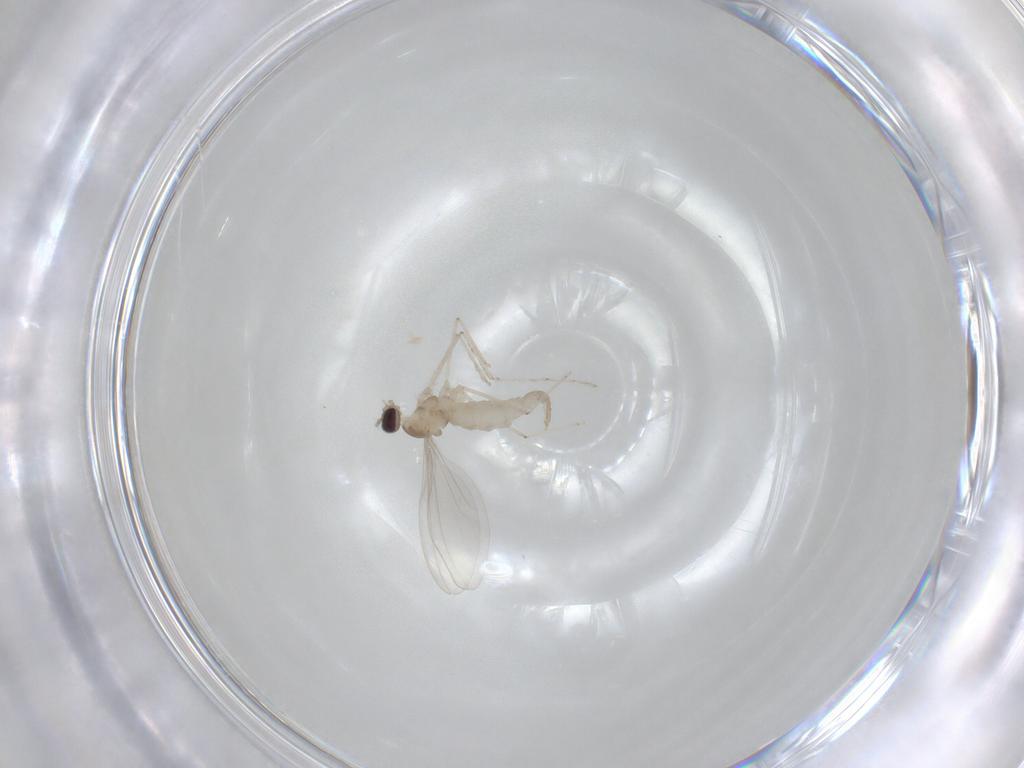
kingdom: Animalia
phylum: Arthropoda
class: Insecta
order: Diptera
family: Cecidomyiidae
